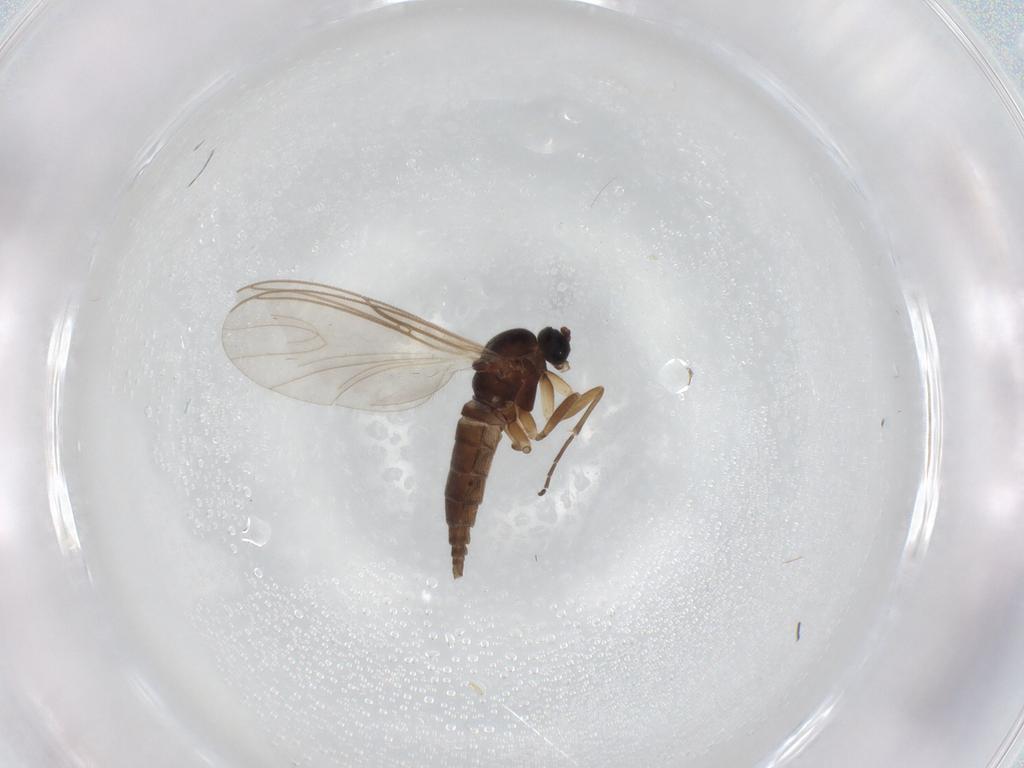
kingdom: Animalia
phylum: Arthropoda
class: Insecta
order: Diptera
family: Sciaridae
